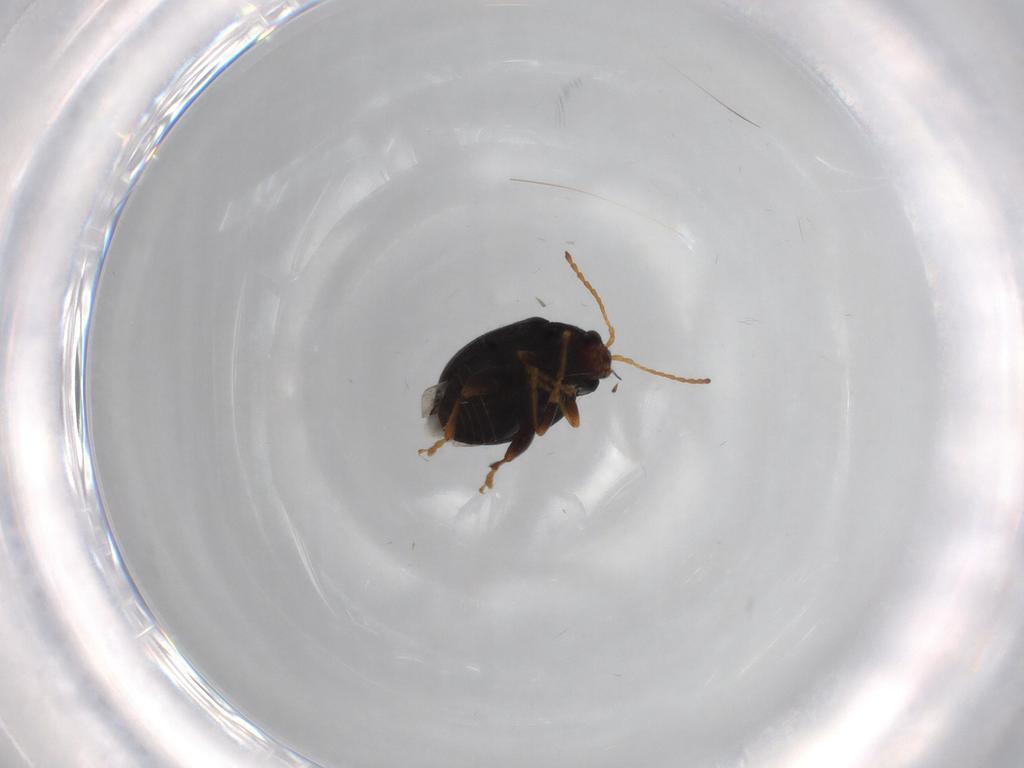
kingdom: Animalia
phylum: Arthropoda
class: Insecta
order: Coleoptera
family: Chrysomelidae
